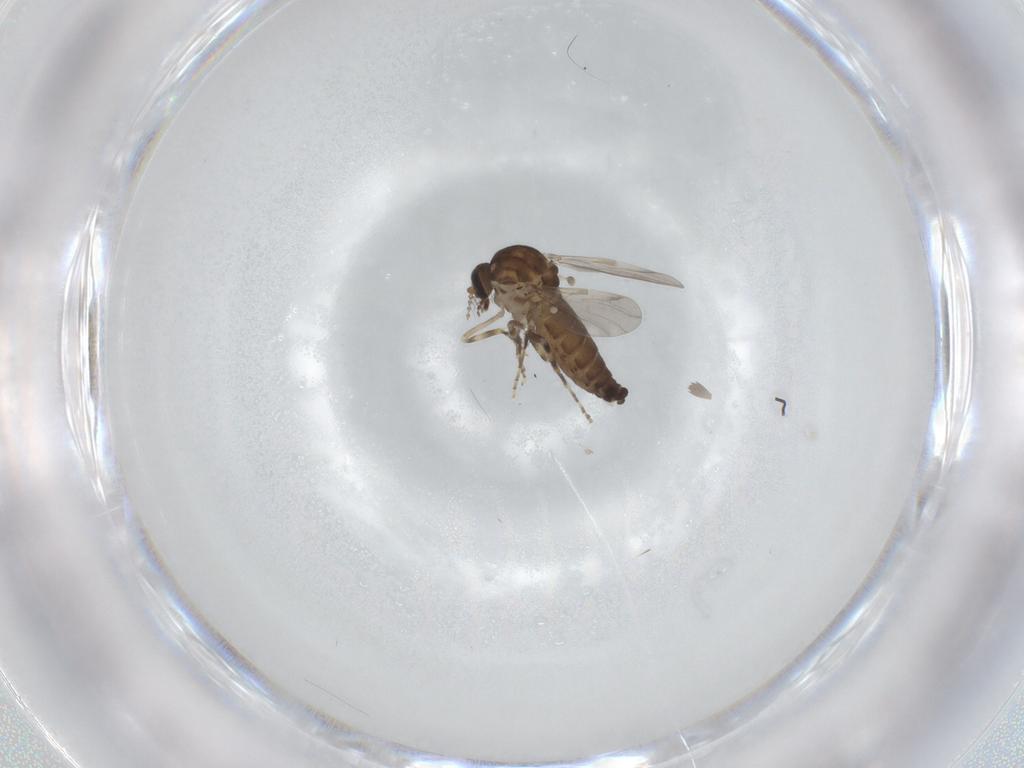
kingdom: Animalia
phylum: Arthropoda
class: Insecta
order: Diptera
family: Ceratopogonidae
